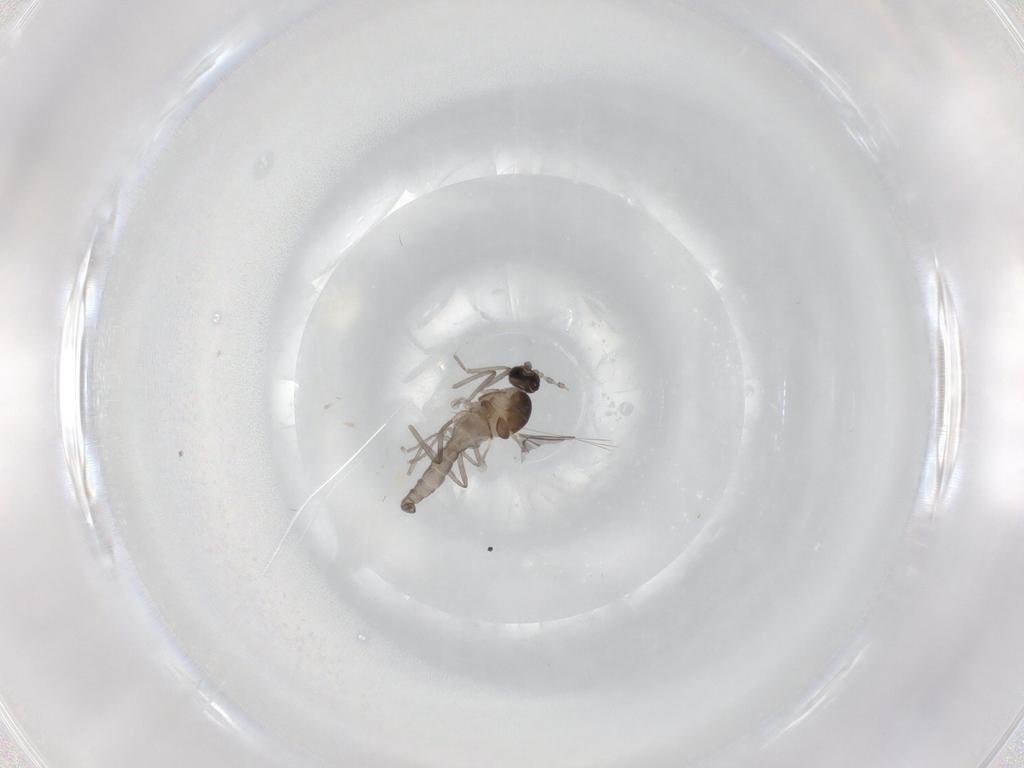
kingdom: Animalia
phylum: Arthropoda
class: Insecta
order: Diptera
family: Cecidomyiidae
